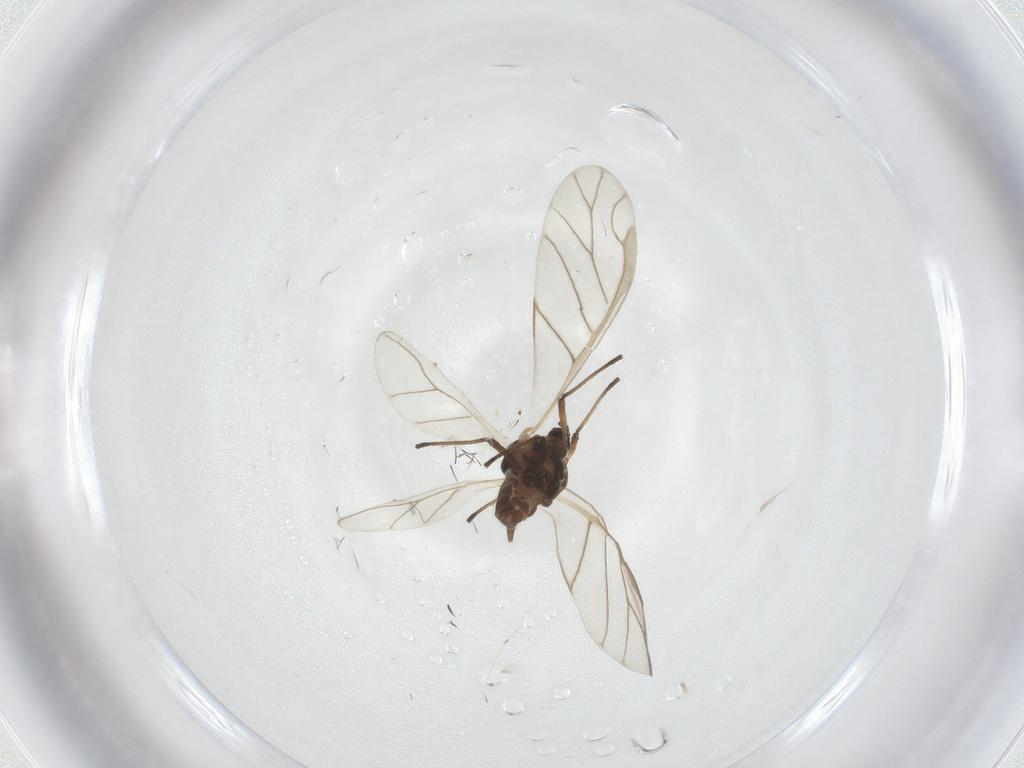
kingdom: Animalia
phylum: Arthropoda
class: Insecta
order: Hemiptera
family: Aphididae
